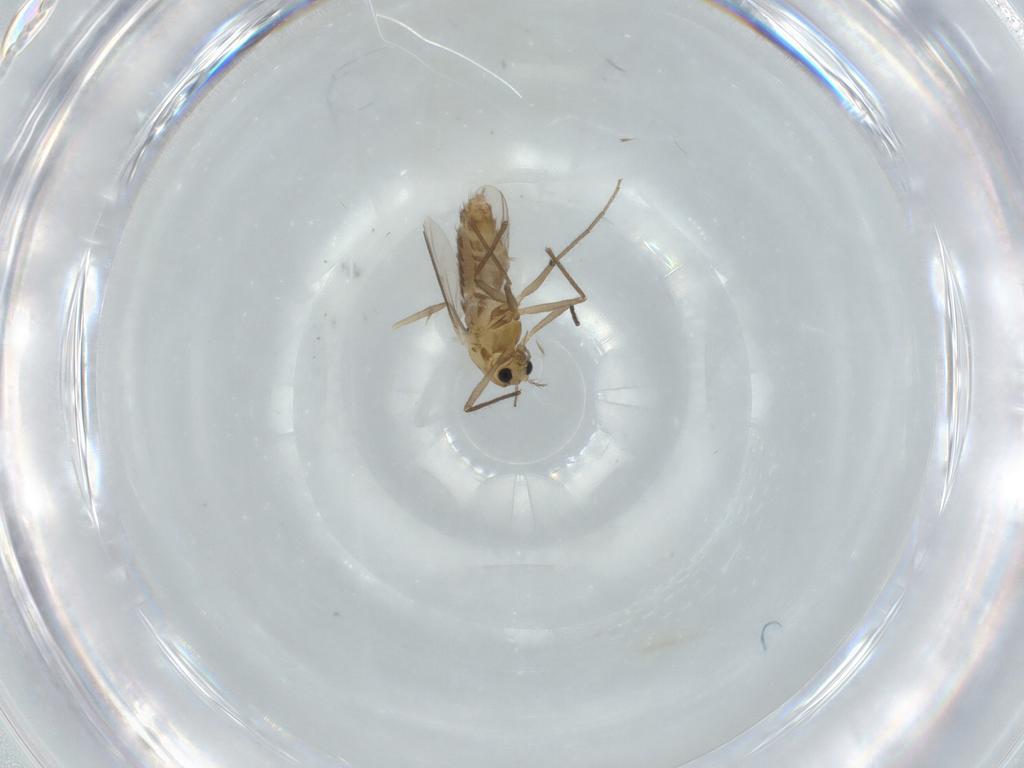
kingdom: Animalia
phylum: Arthropoda
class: Insecta
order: Diptera
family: Chironomidae
